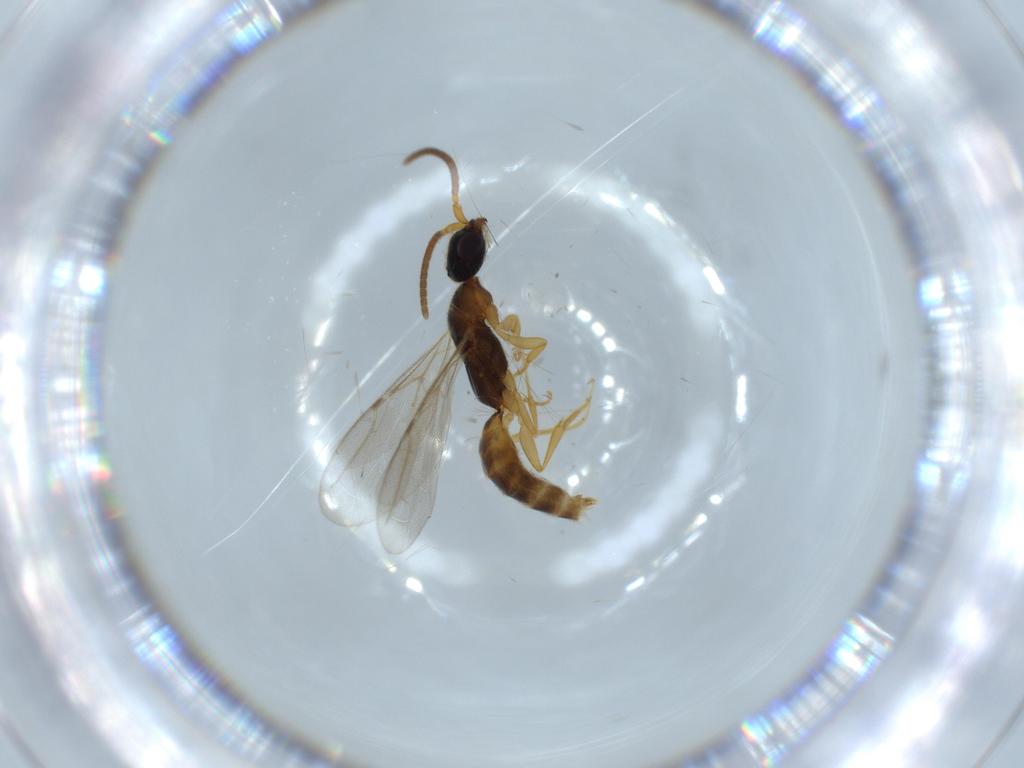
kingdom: Animalia
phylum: Arthropoda
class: Insecta
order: Hymenoptera
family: Bethylidae
